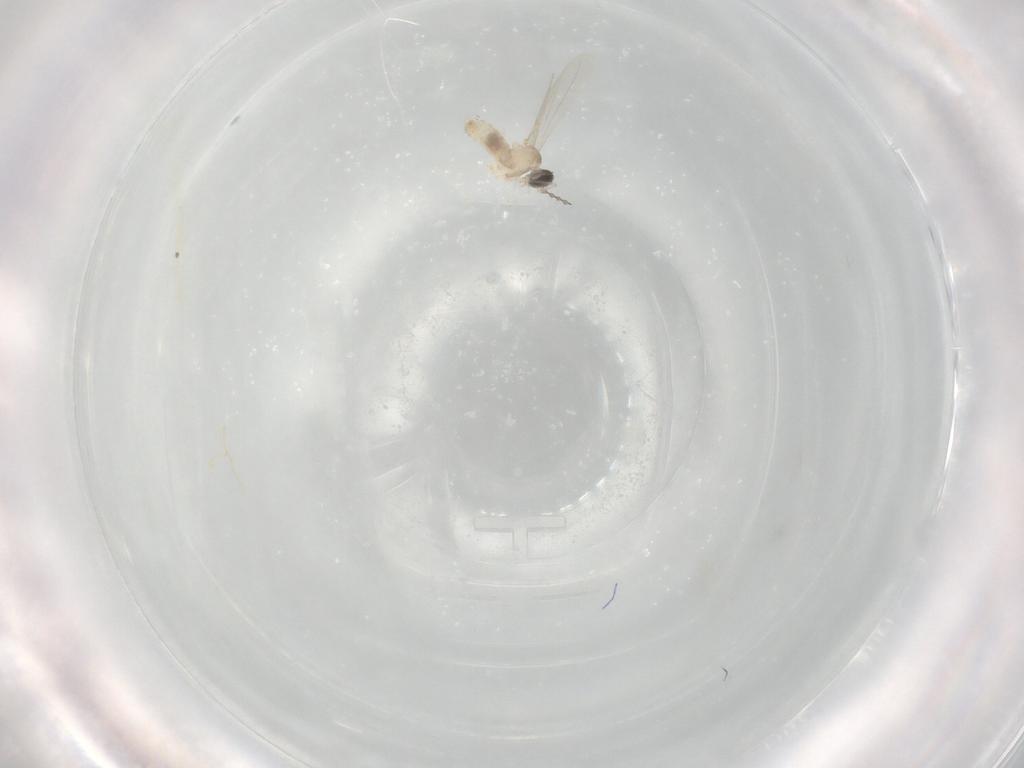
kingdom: Animalia
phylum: Arthropoda
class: Insecta
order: Diptera
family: Cecidomyiidae
